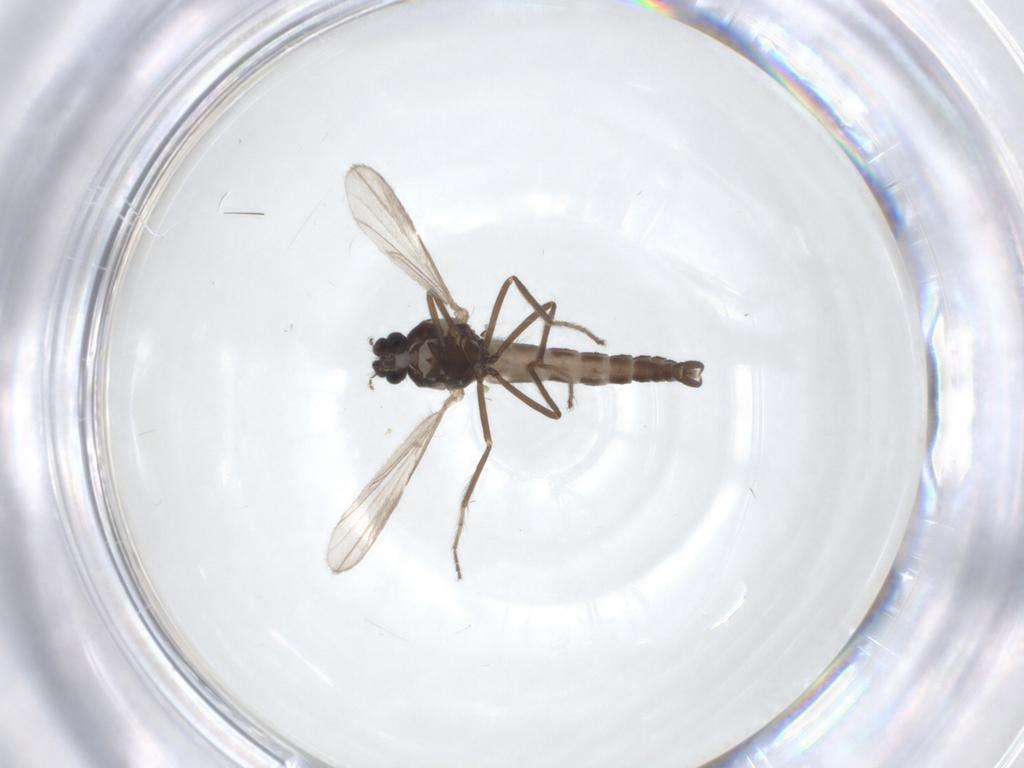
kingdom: Animalia
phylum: Arthropoda
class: Insecta
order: Diptera
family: Ceratopogonidae
